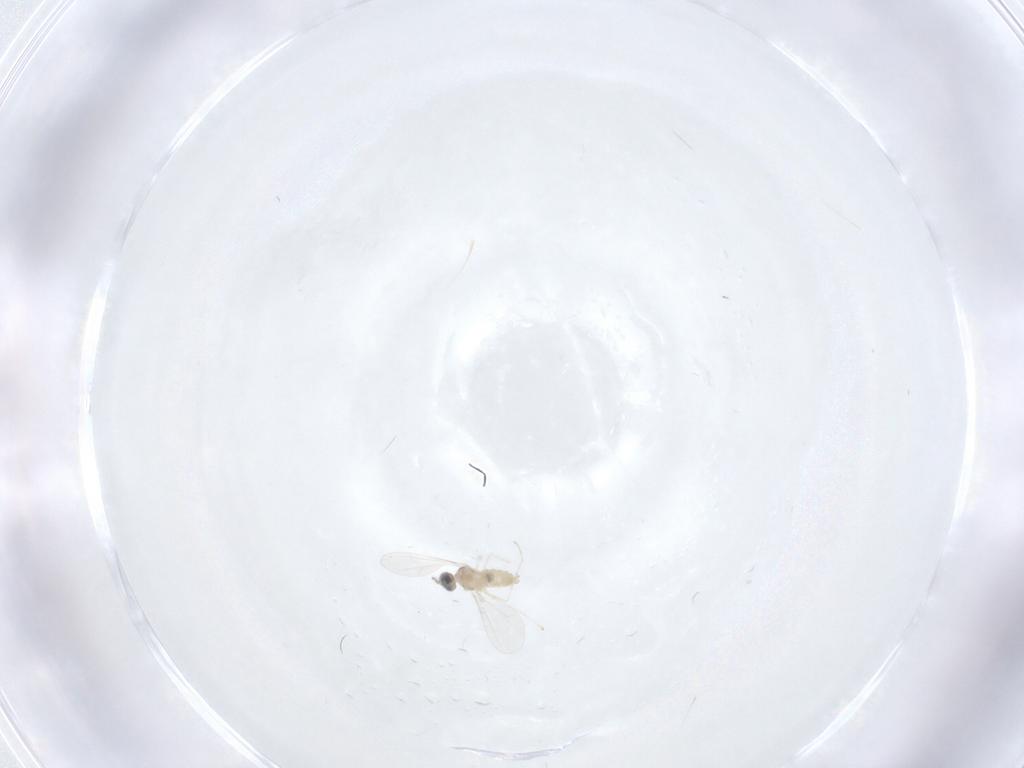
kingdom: Animalia
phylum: Arthropoda
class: Insecta
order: Diptera
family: Cecidomyiidae
